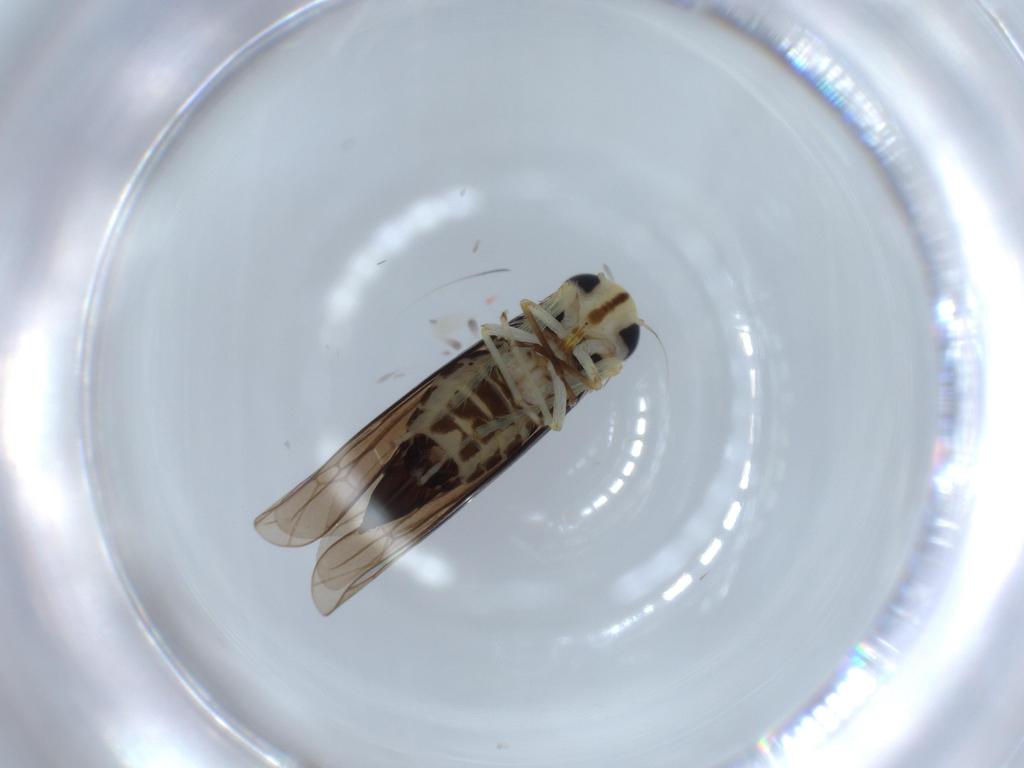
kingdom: Animalia
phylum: Arthropoda
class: Insecta
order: Hemiptera
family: Cicadellidae
